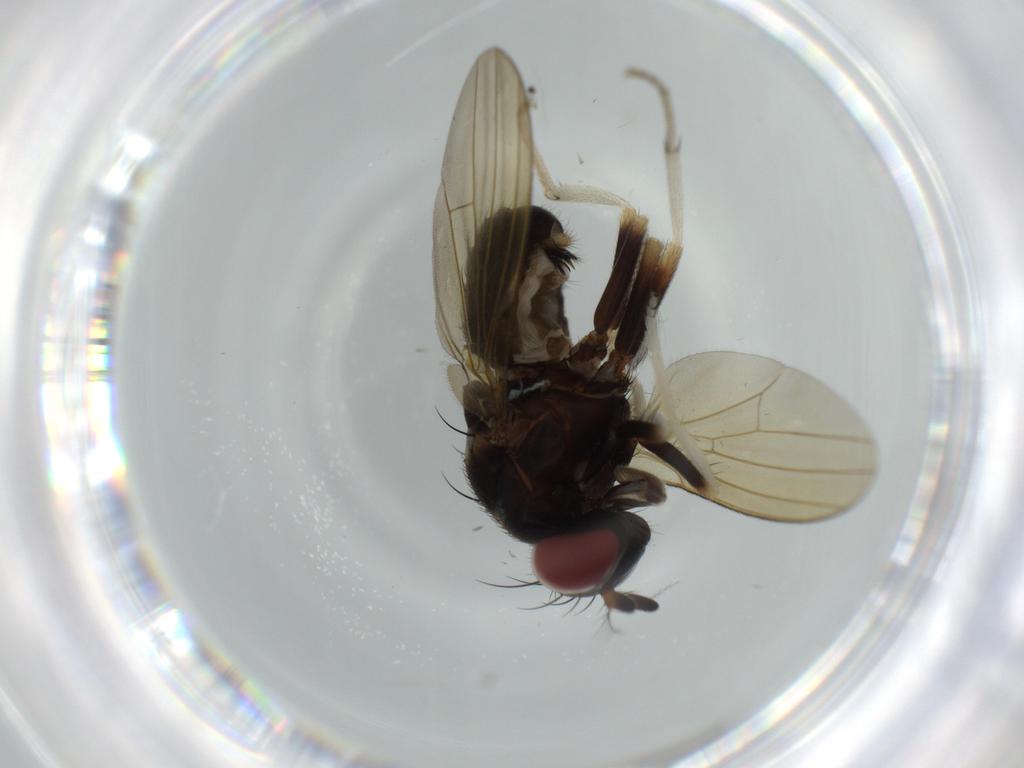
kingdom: Animalia
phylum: Arthropoda
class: Insecta
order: Diptera
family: Chironomidae
